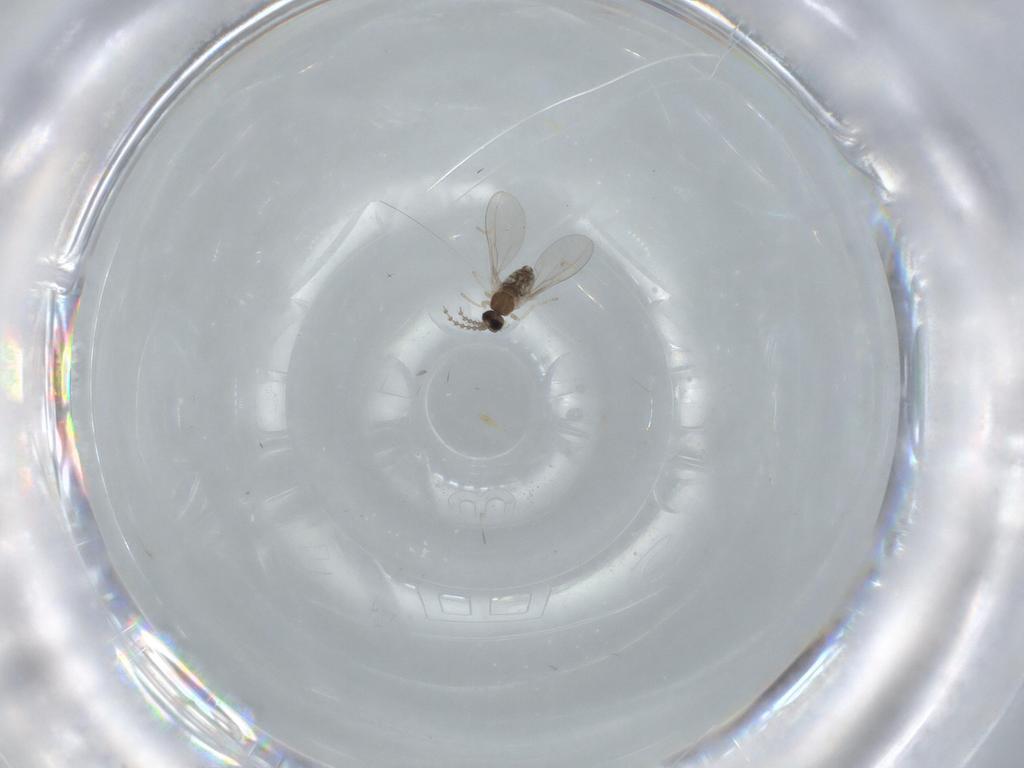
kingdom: Animalia
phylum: Arthropoda
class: Insecta
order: Diptera
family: Cecidomyiidae
